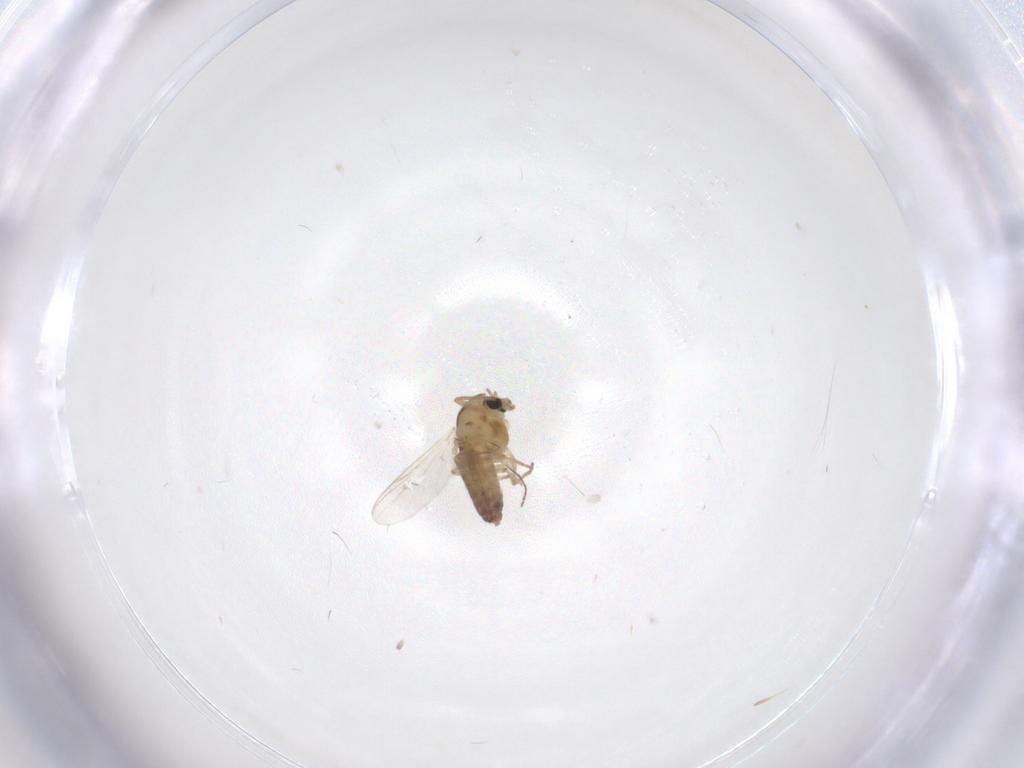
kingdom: Animalia
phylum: Arthropoda
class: Insecta
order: Diptera
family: Chironomidae
